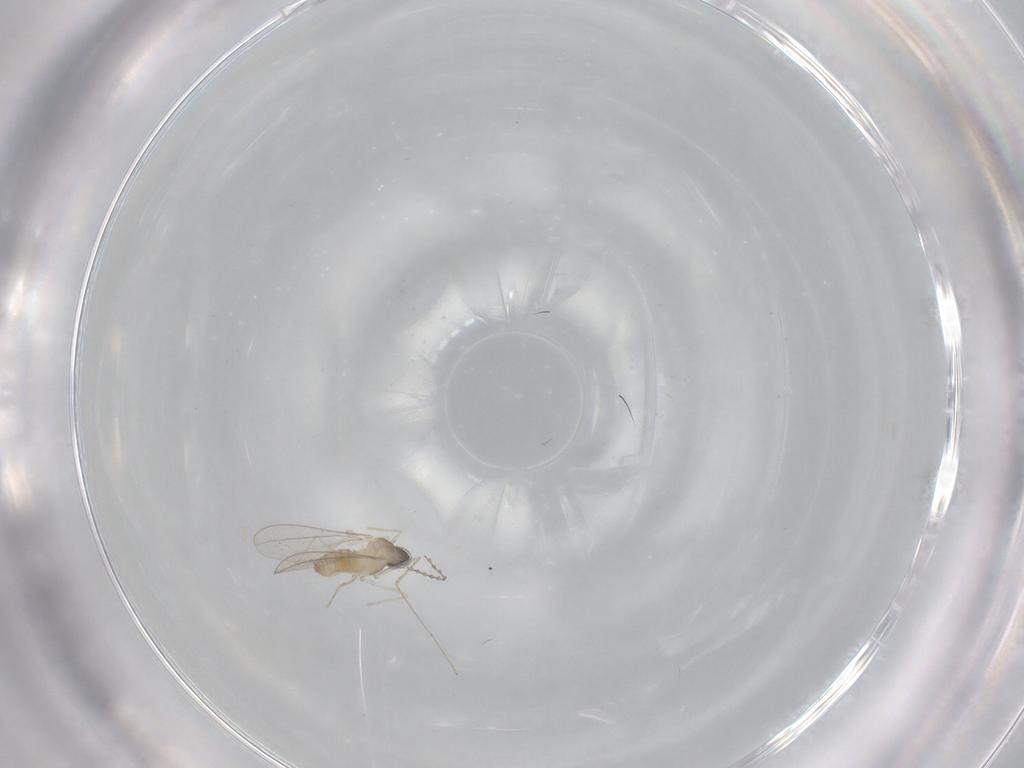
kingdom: Animalia
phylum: Arthropoda
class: Insecta
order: Diptera
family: Cecidomyiidae
